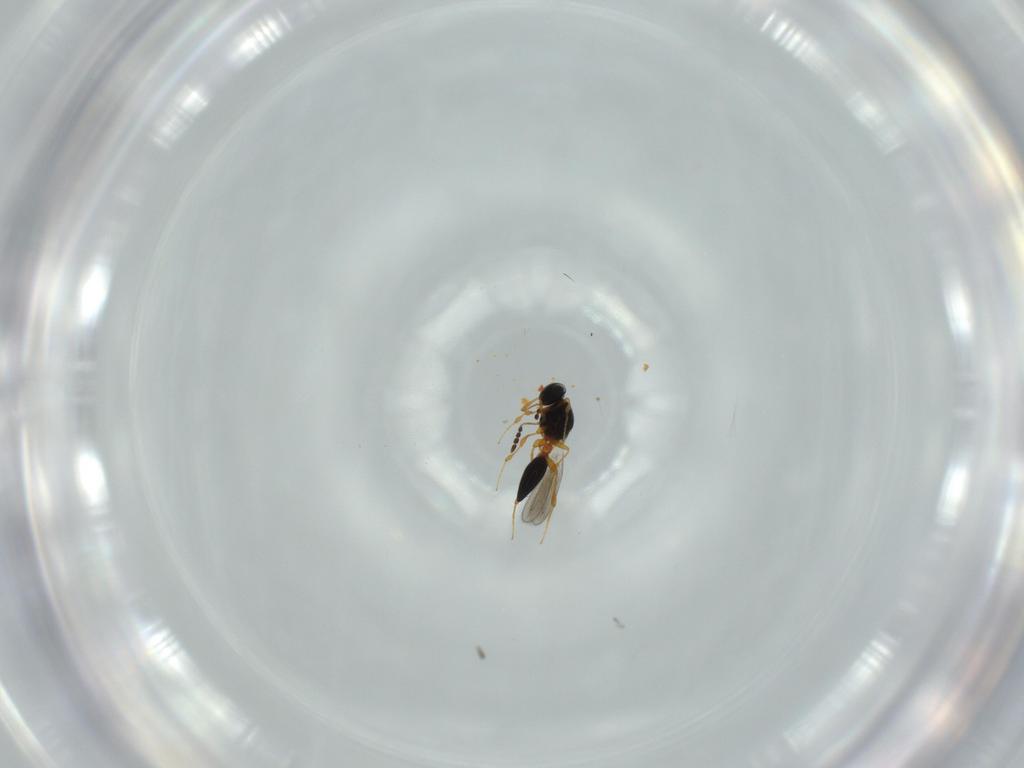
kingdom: Animalia
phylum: Arthropoda
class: Insecta
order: Hymenoptera
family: Platygastridae
